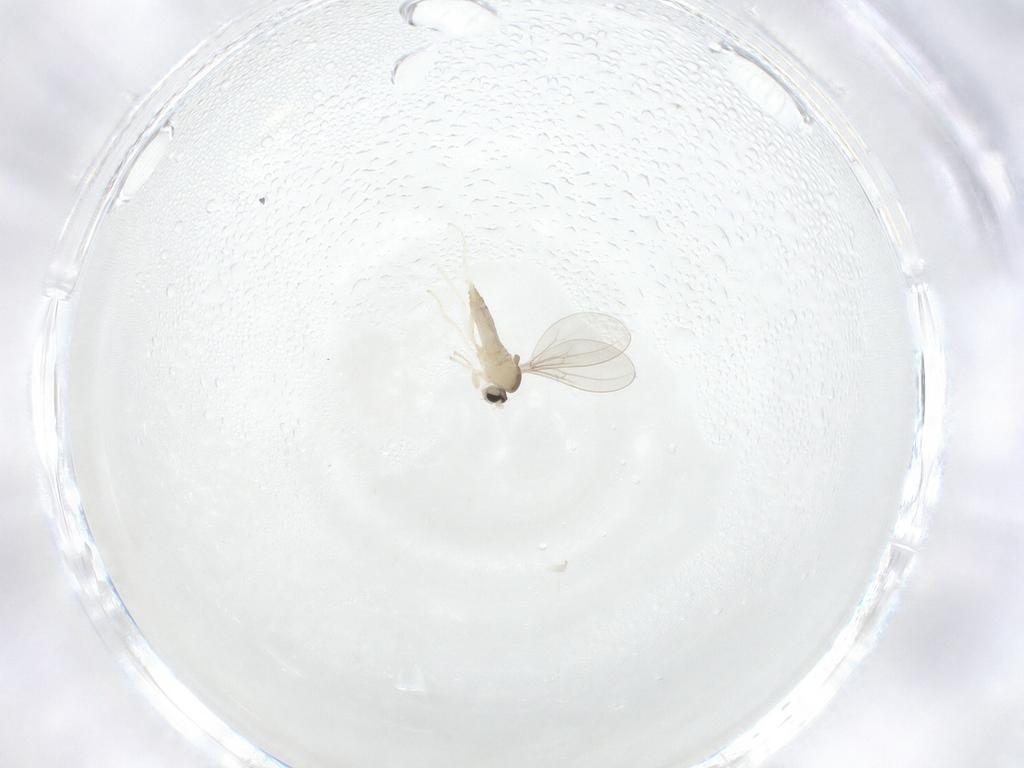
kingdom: Animalia
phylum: Arthropoda
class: Insecta
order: Diptera
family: Cecidomyiidae
